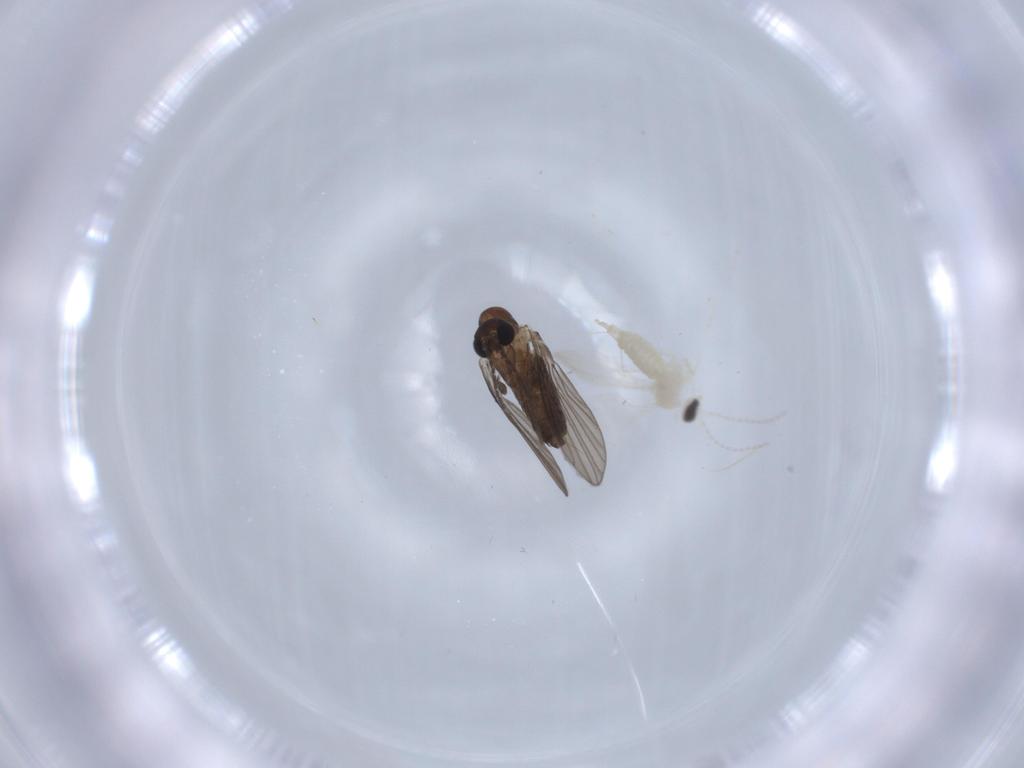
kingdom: Animalia
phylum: Arthropoda
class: Insecta
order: Diptera
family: Cecidomyiidae
